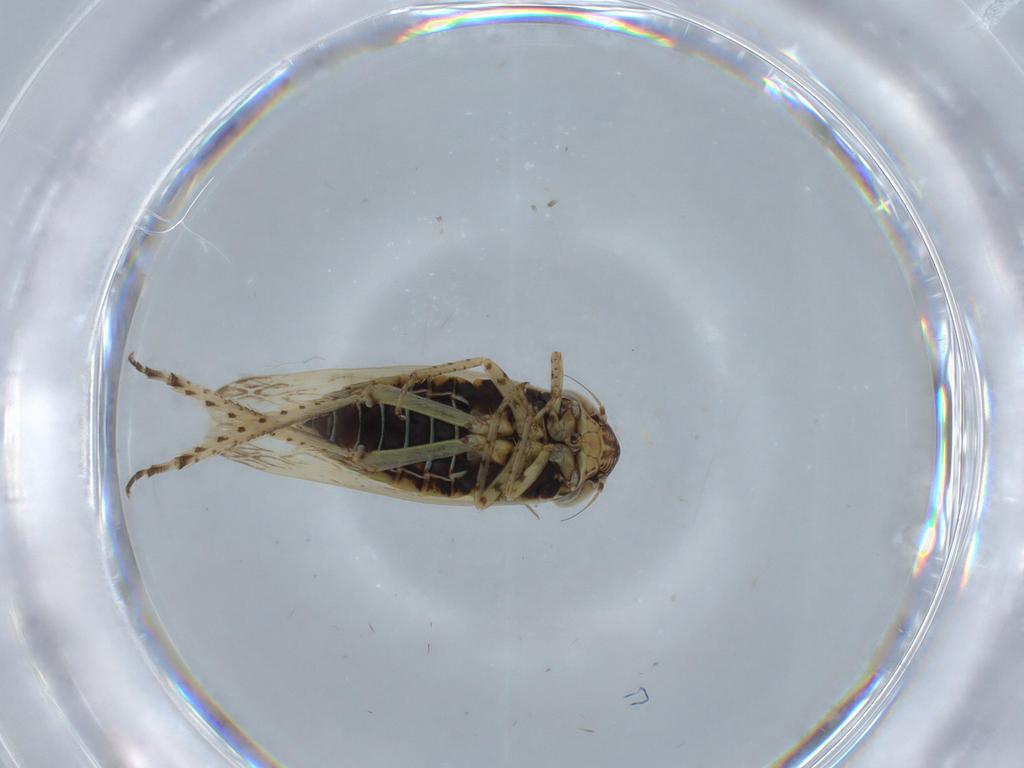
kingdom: Animalia
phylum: Arthropoda
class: Insecta
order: Hemiptera
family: Cicadellidae
